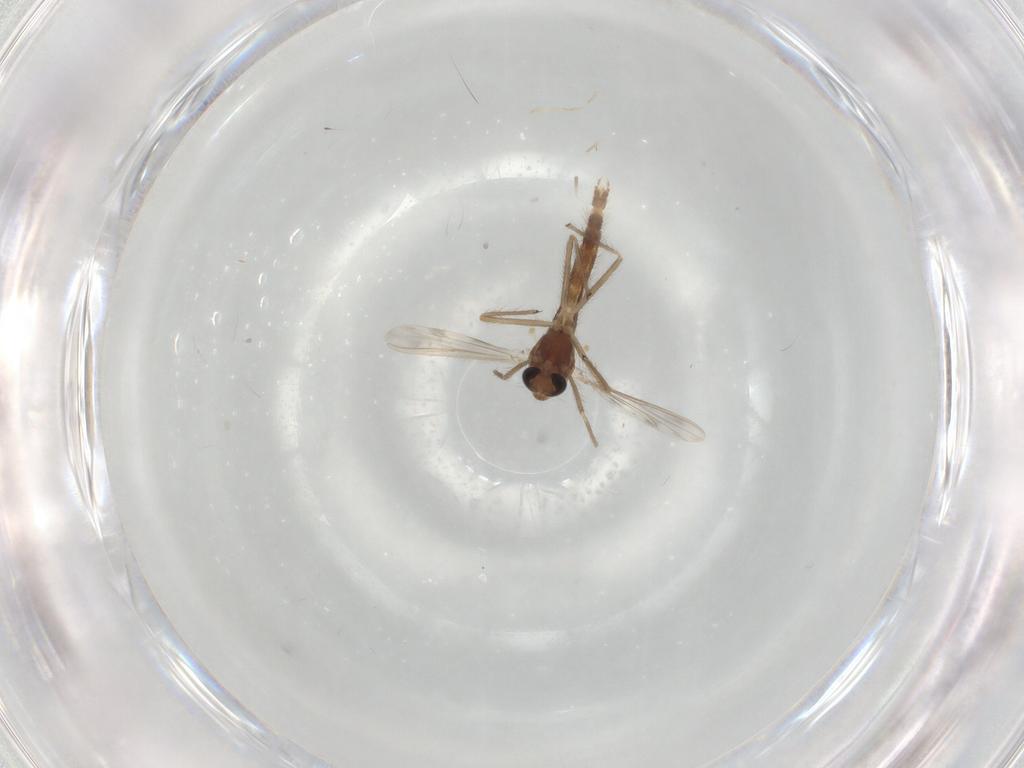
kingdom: Animalia
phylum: Arthropoda
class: Insecta
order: Diptera
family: Chironomidae
